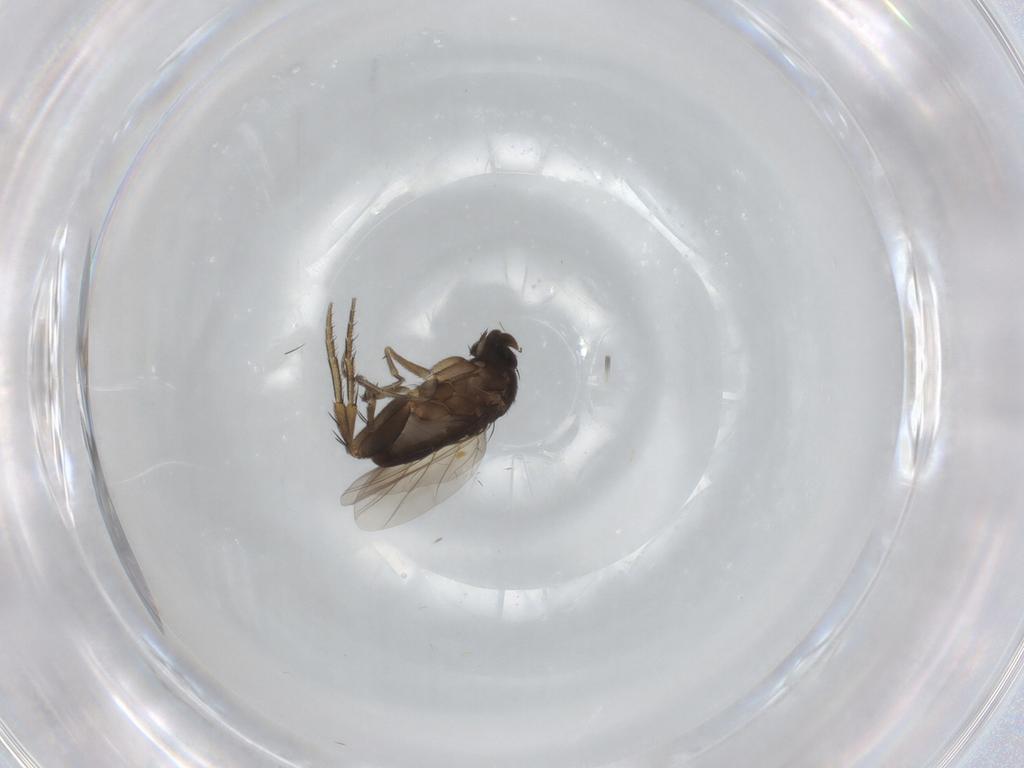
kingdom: Animalia
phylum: Arthropoda
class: Insecta
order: Diptera
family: Phoridae
